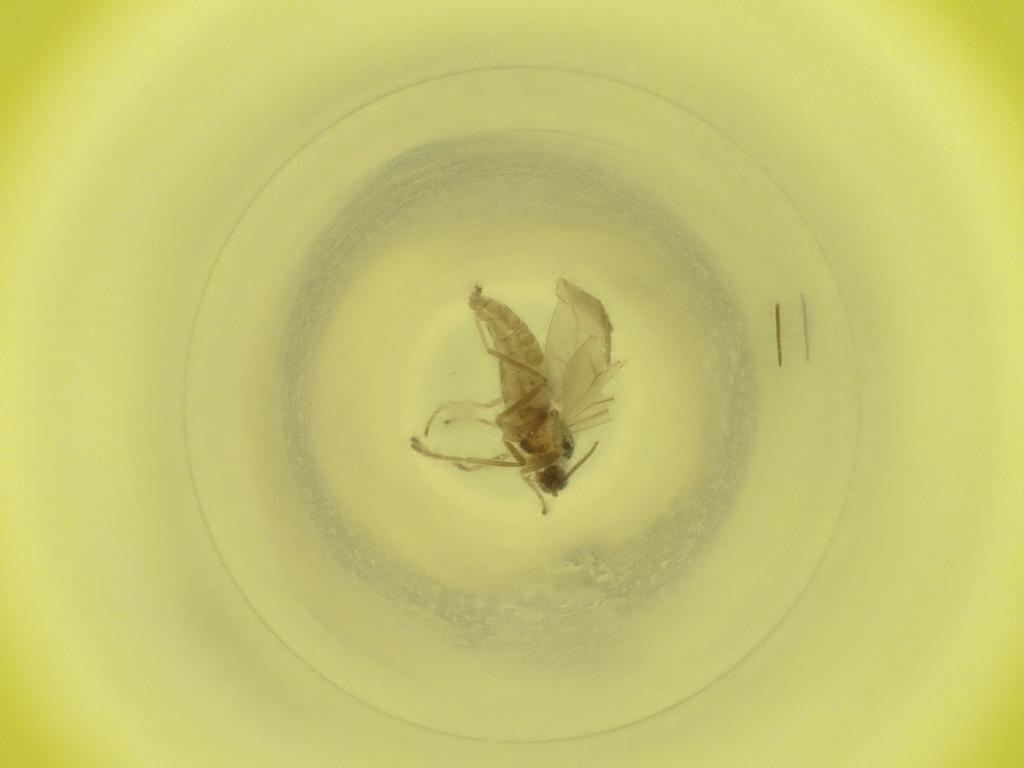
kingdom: Animalia
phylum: Arthropoda
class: Insecta
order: Diptera
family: Cecidomyiidae
